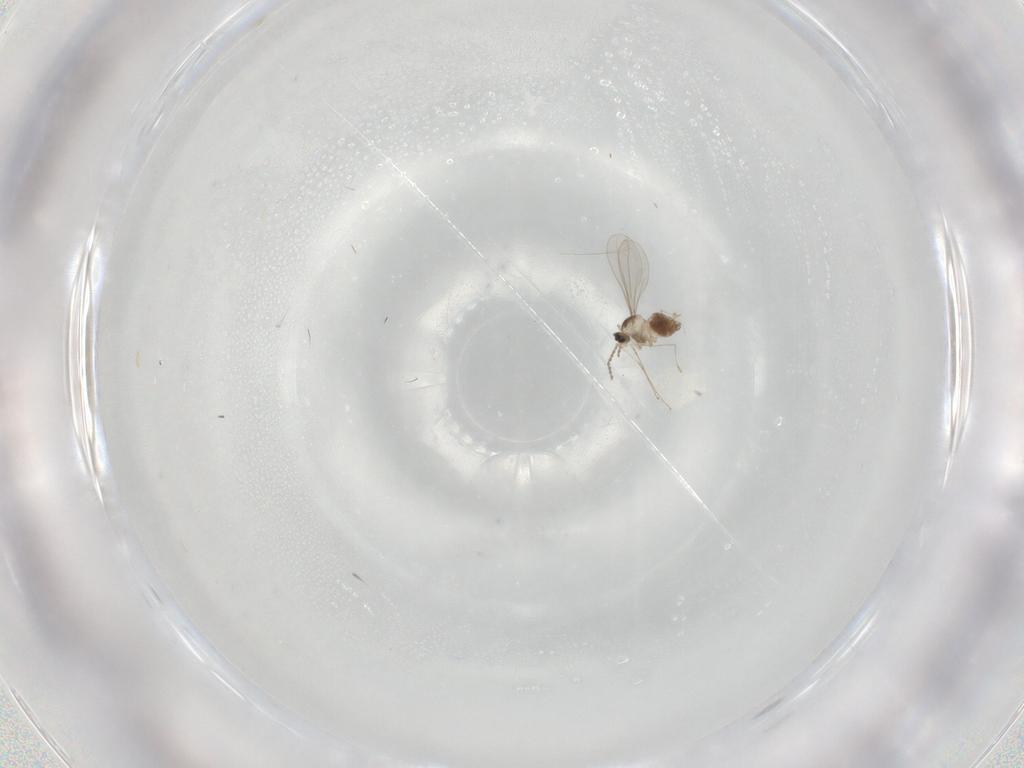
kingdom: Animalia
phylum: Arthropoda
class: Insecta
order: Diptera
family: Cecidomyiidae
